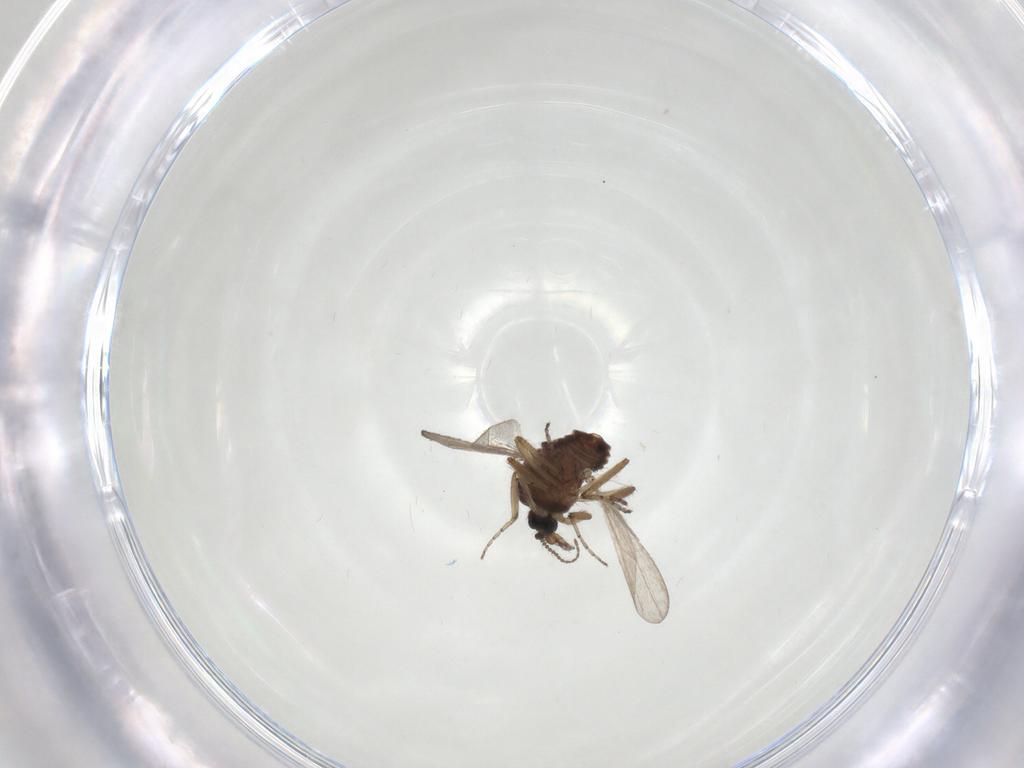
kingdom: Animalia
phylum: Arthropoda
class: Insecta
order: Diptera
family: Ceratopogonidae
